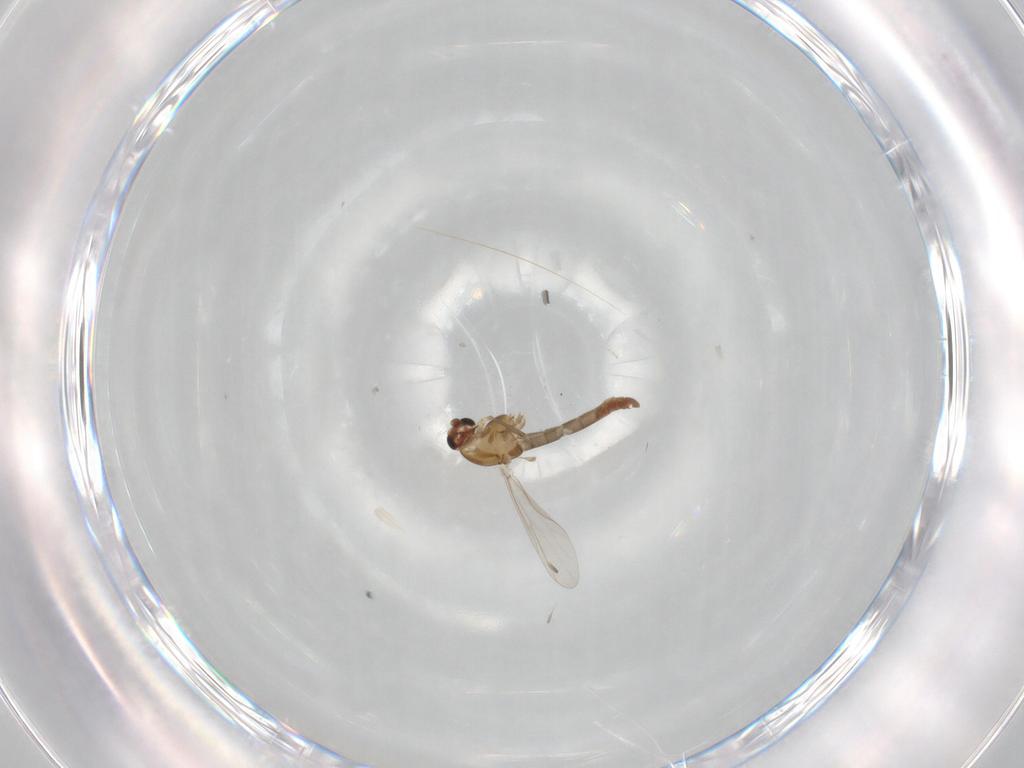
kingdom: Animalia
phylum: Arthropoda
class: Insecta
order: Diptera
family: Chironomidae
